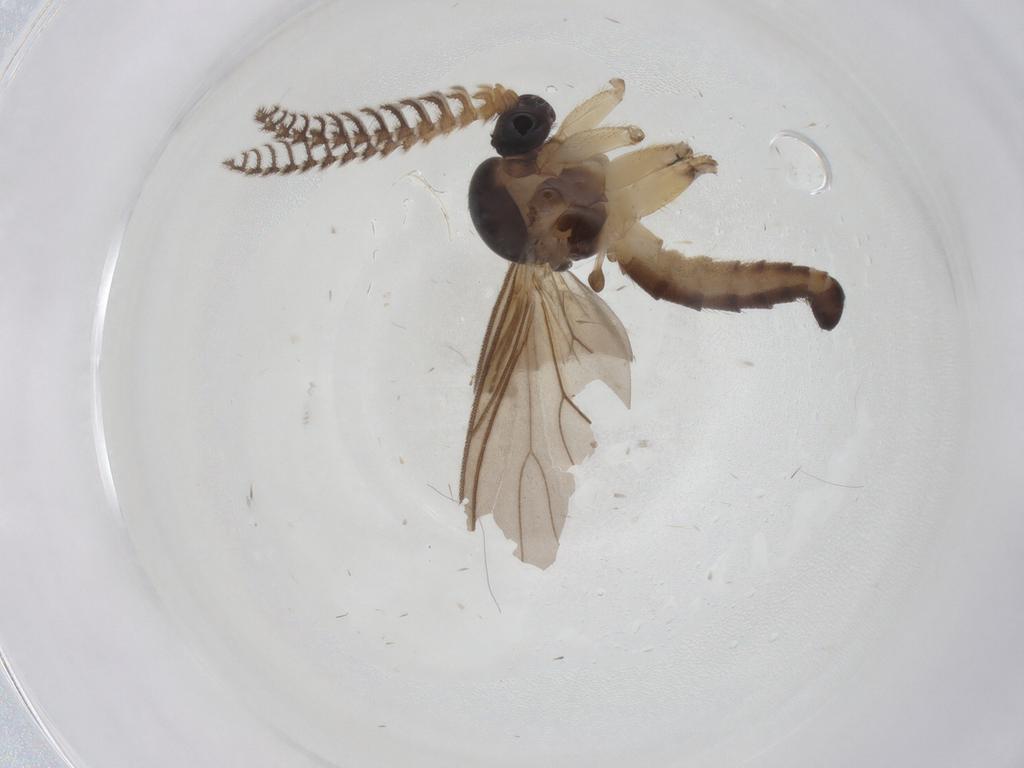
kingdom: Animalia
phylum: Arthropoda
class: Insecta
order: Diptera
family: Mycetophilidae
